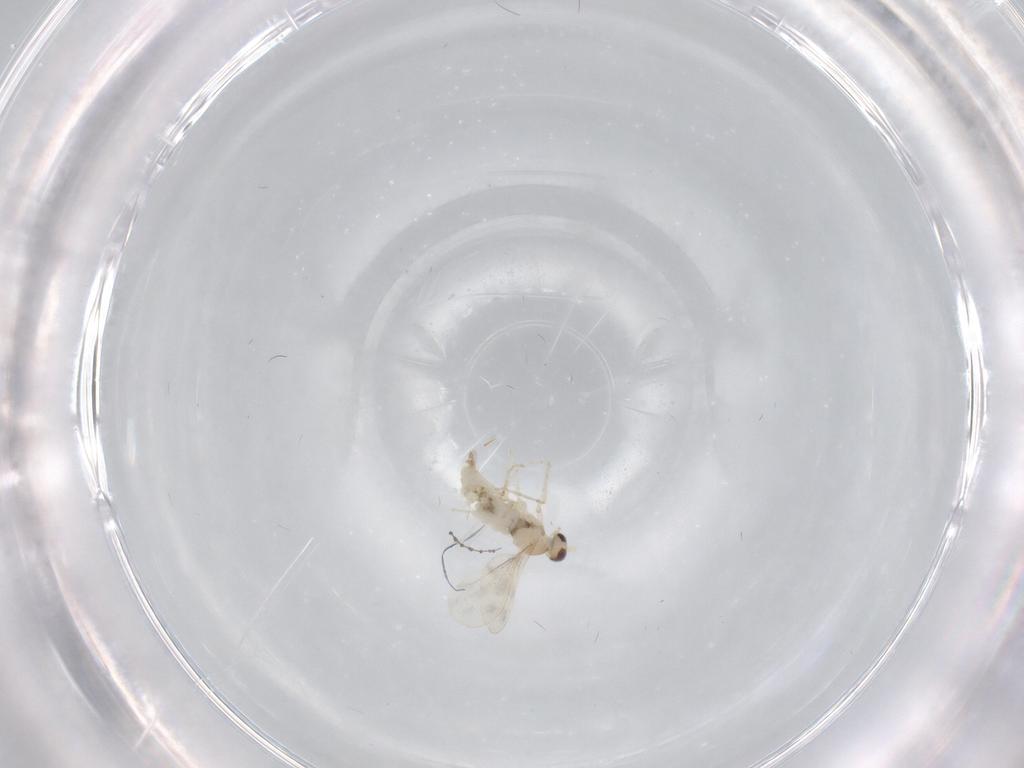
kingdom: Animalia
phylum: Arthropoda
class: Insecta
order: Diptera
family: Cecidomyiidae
